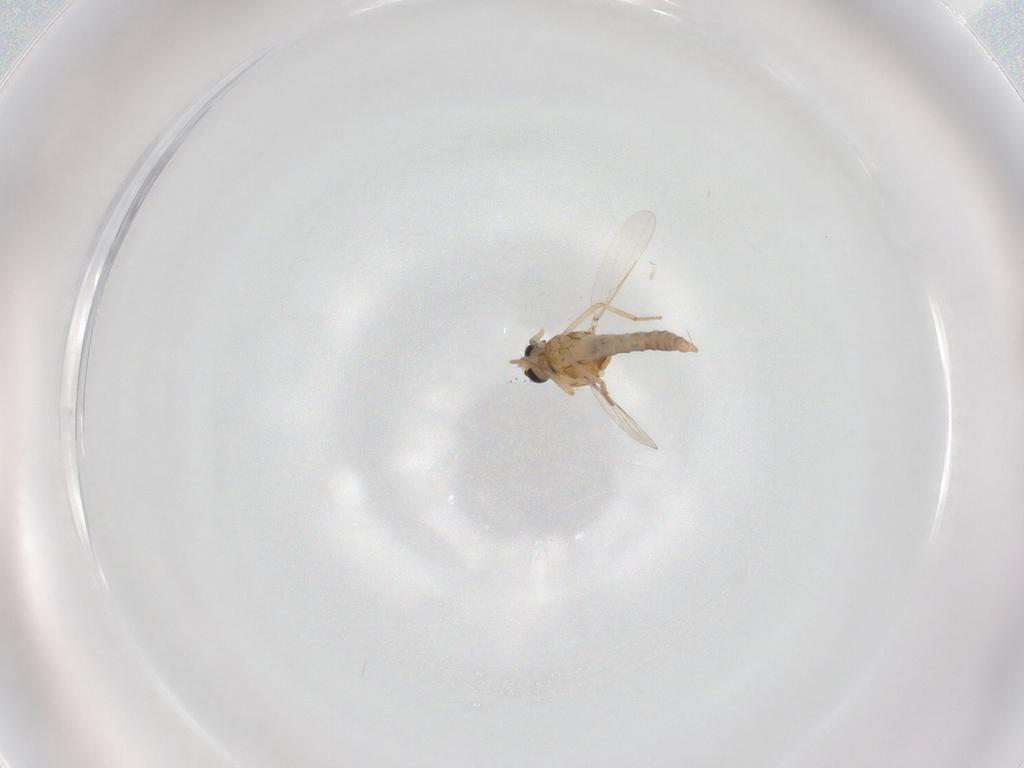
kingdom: Animalia
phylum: Arthropoda
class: Insecta
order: Diptera
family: Ceratopogonidae
